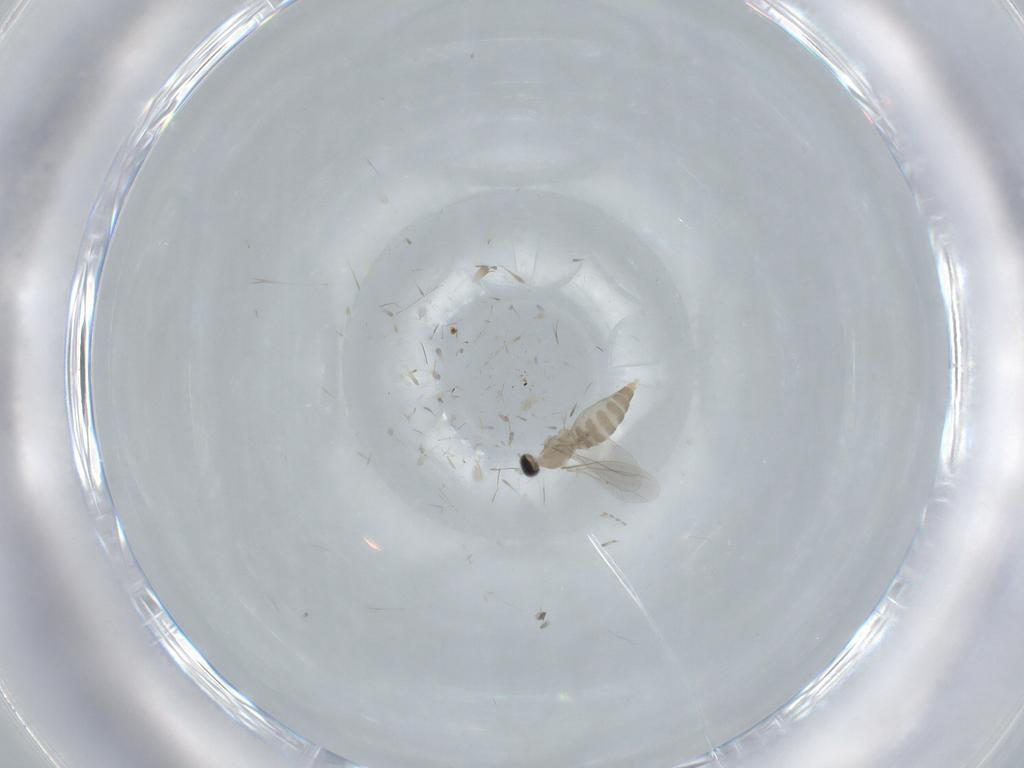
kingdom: Animalia
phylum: Arthropoda
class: Insecta
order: Diptera
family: Cecidomyiidae
